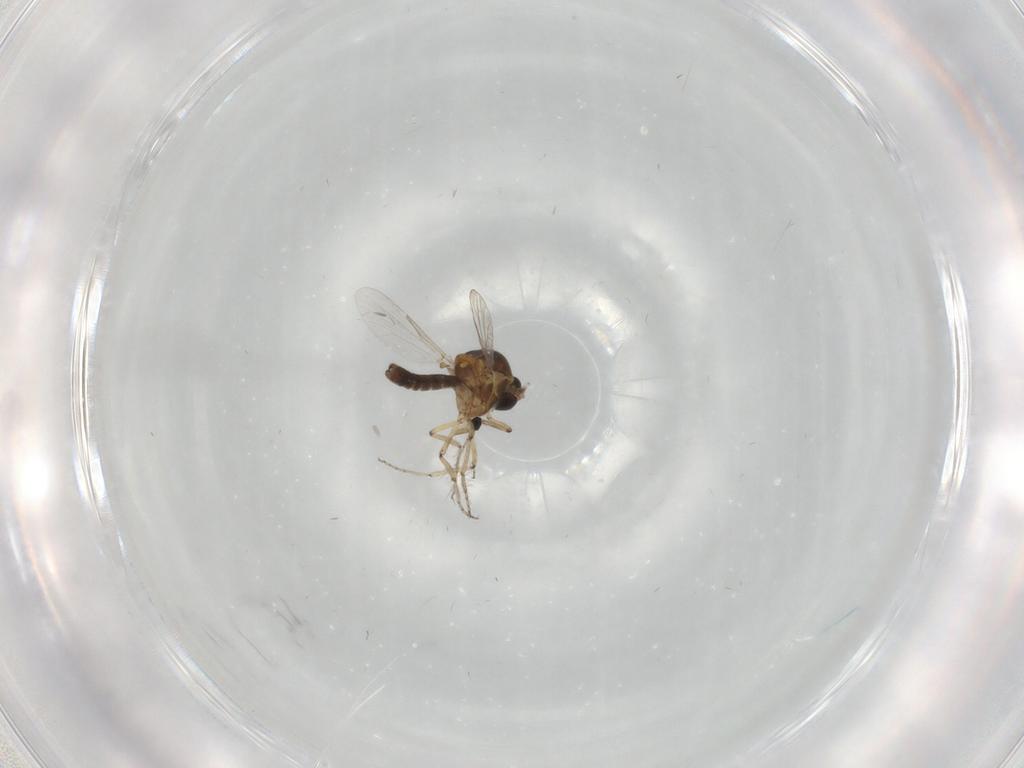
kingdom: Animalia
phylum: Arthropoda
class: Insecta
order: Diptera
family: Ceratopogonidae
